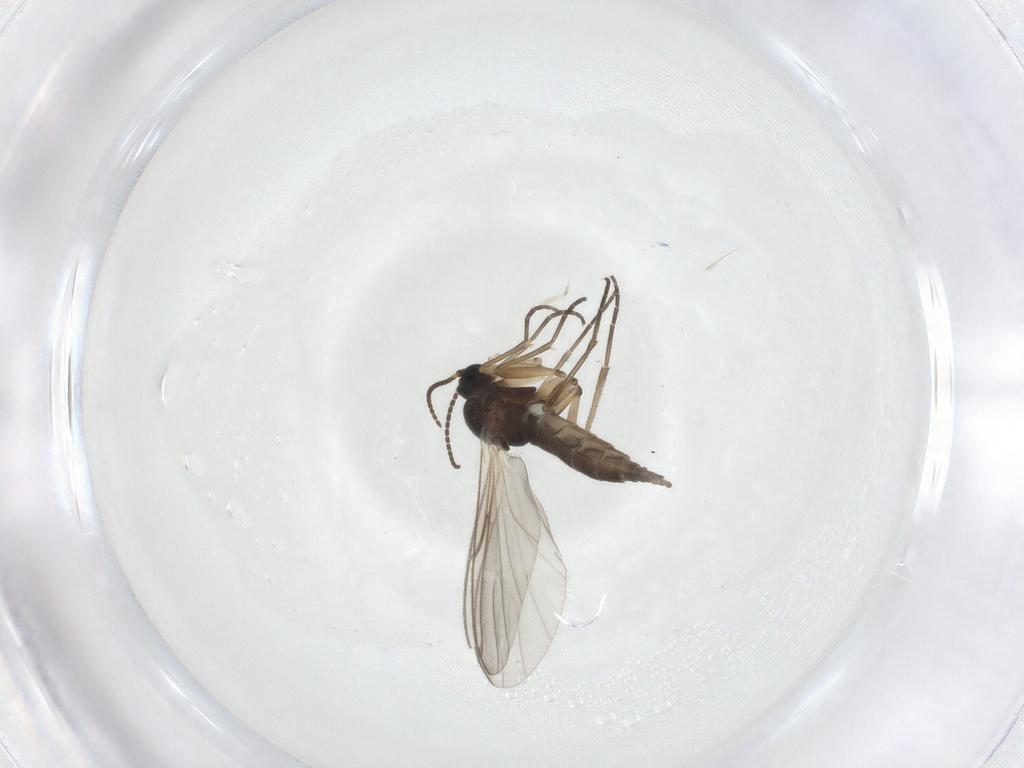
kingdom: Animalia
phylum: Arthropoda
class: Insecta
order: Diptera
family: Sciaridae
